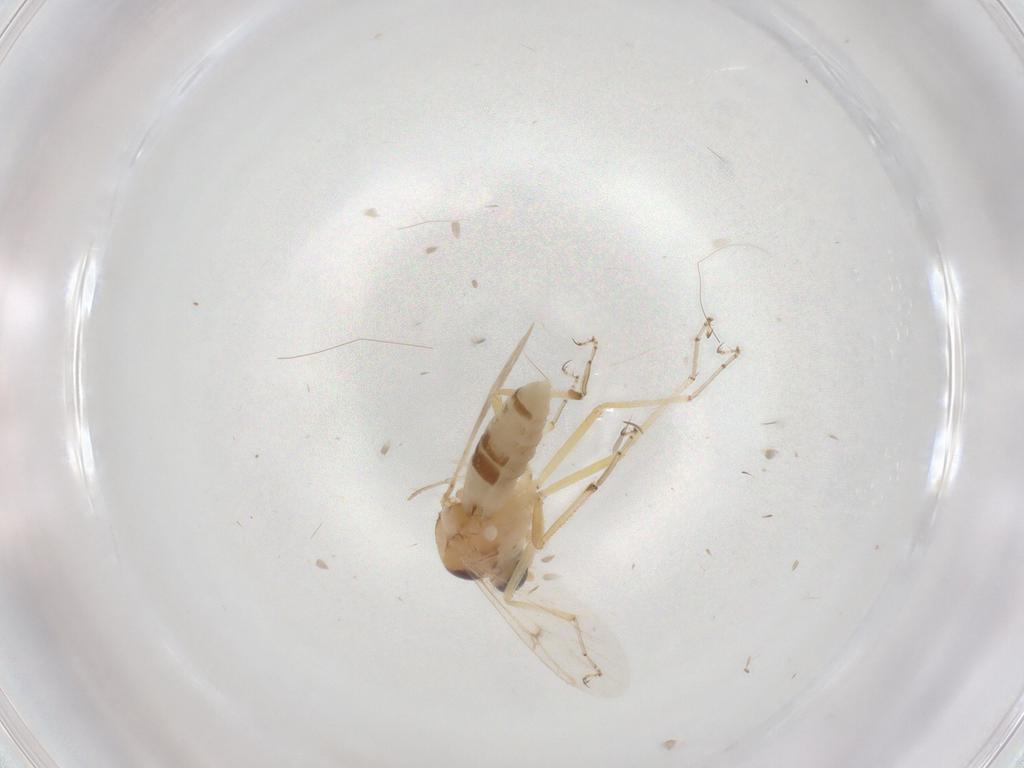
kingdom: Animalia
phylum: Arthropoda
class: Insecta
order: Diptera
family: Ceratopogonidae
